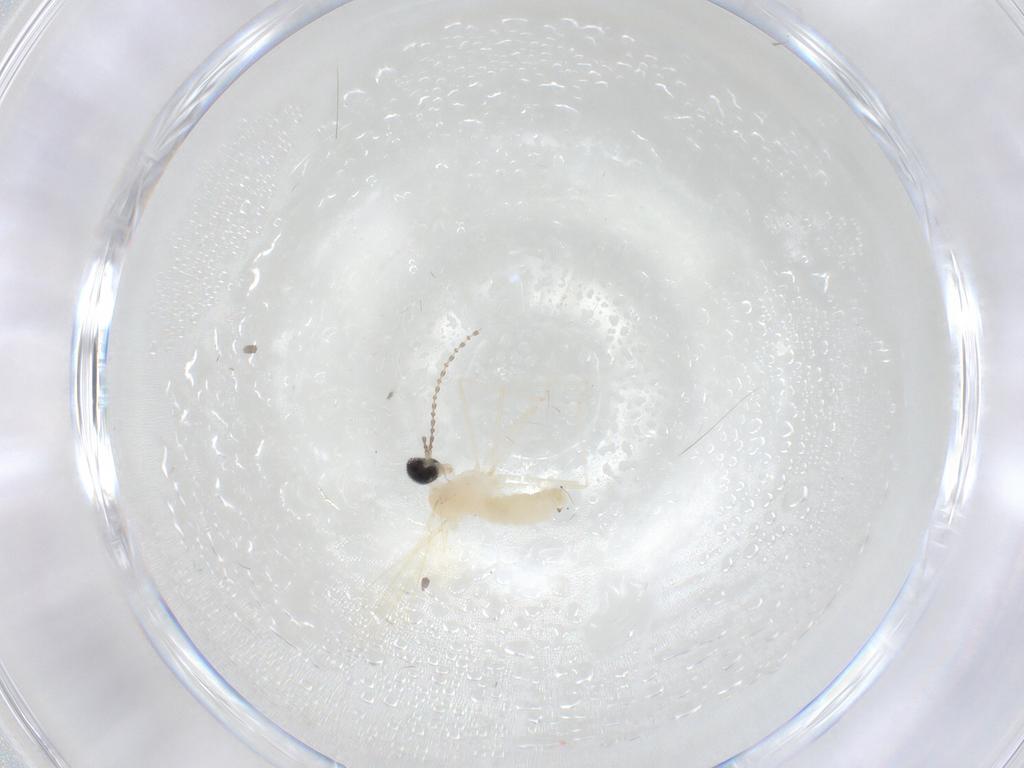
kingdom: Animalia
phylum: Arthropoda
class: Insecta
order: Diptera
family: Chironomidae
